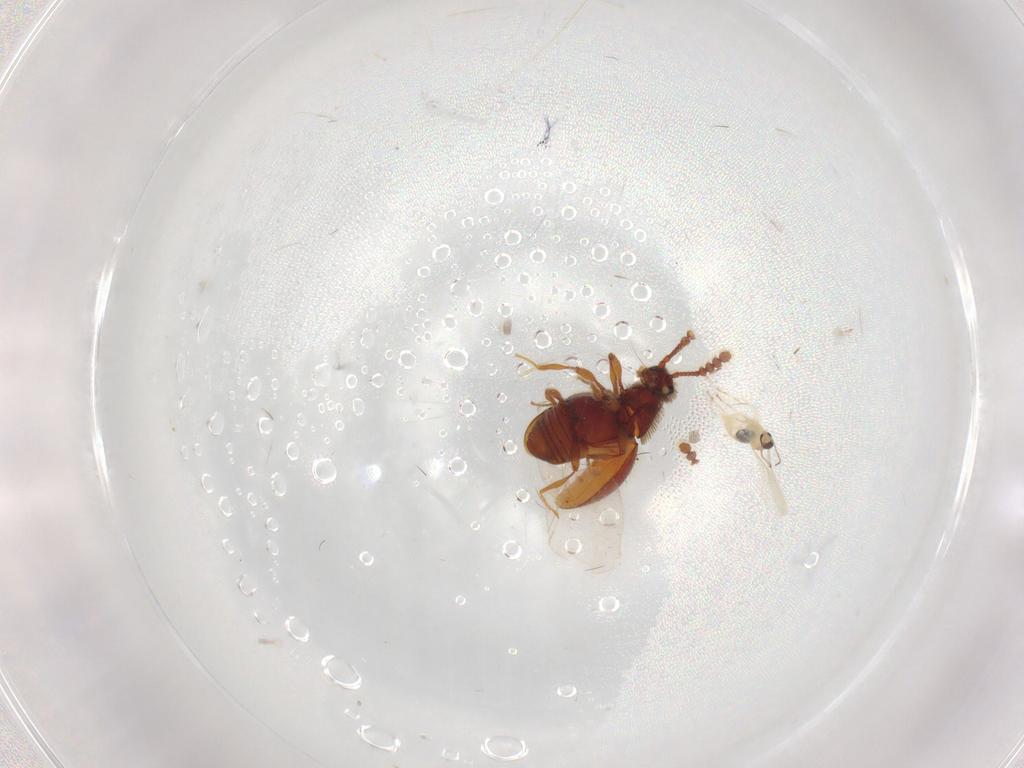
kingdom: Animalia
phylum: Arthropoda
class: Insecta
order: Diptera
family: Cecidomyiidae
